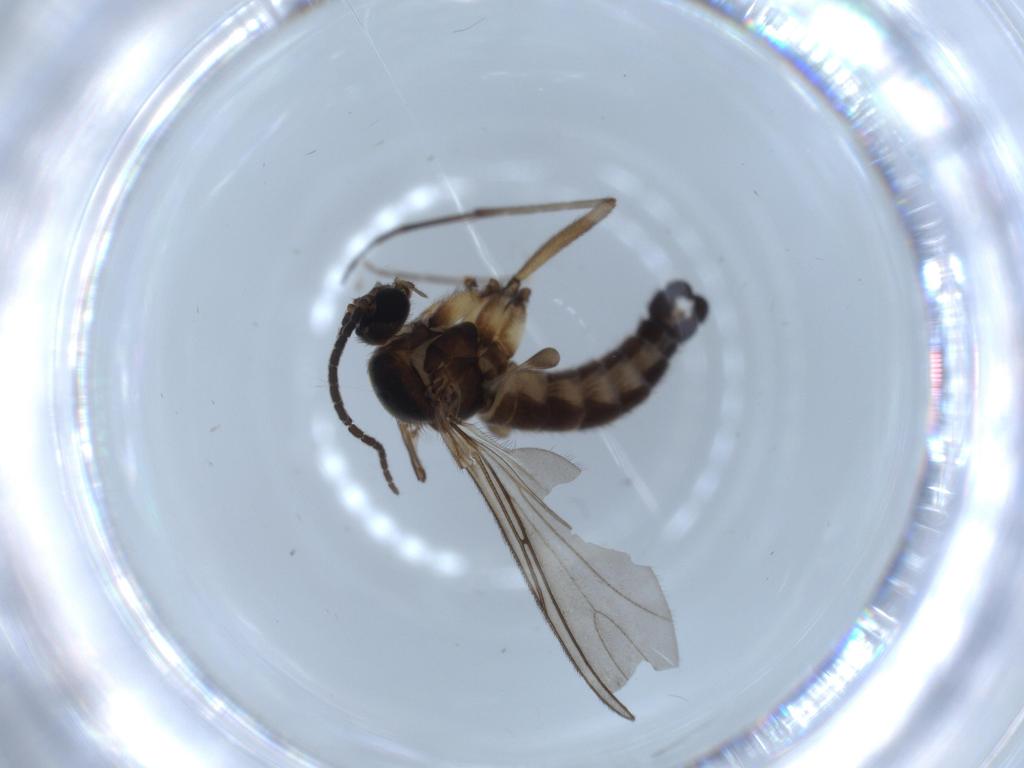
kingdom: Animalia
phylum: Arthropoda
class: Insecta
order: Diptera
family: Sciaridae
